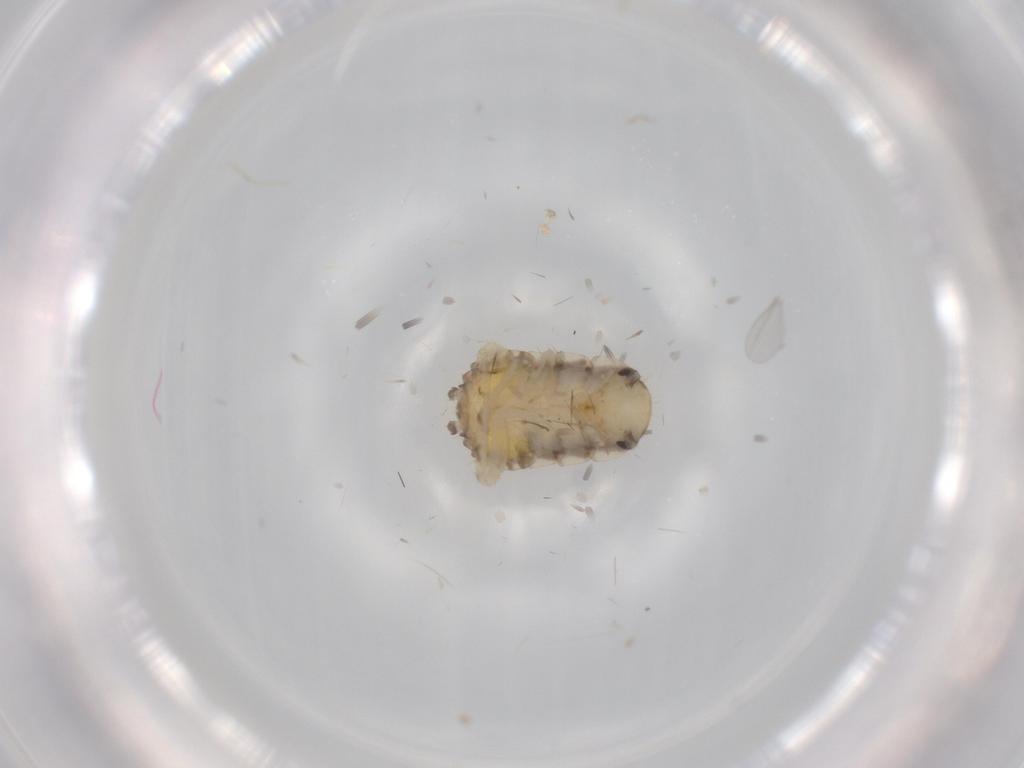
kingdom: Animalia
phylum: Arthropoda
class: Insecta
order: Blattodea
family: Ectobiidae
